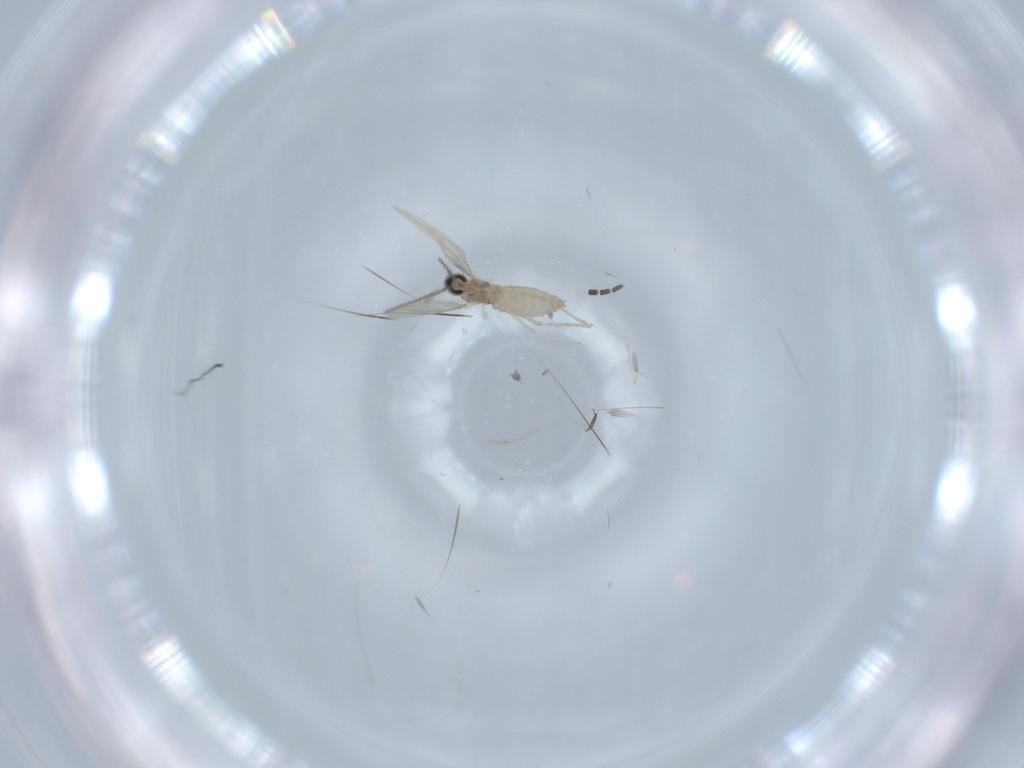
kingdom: Animalia
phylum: Arthropoda
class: Insecta
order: Diptera
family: Cecidomyiidae
